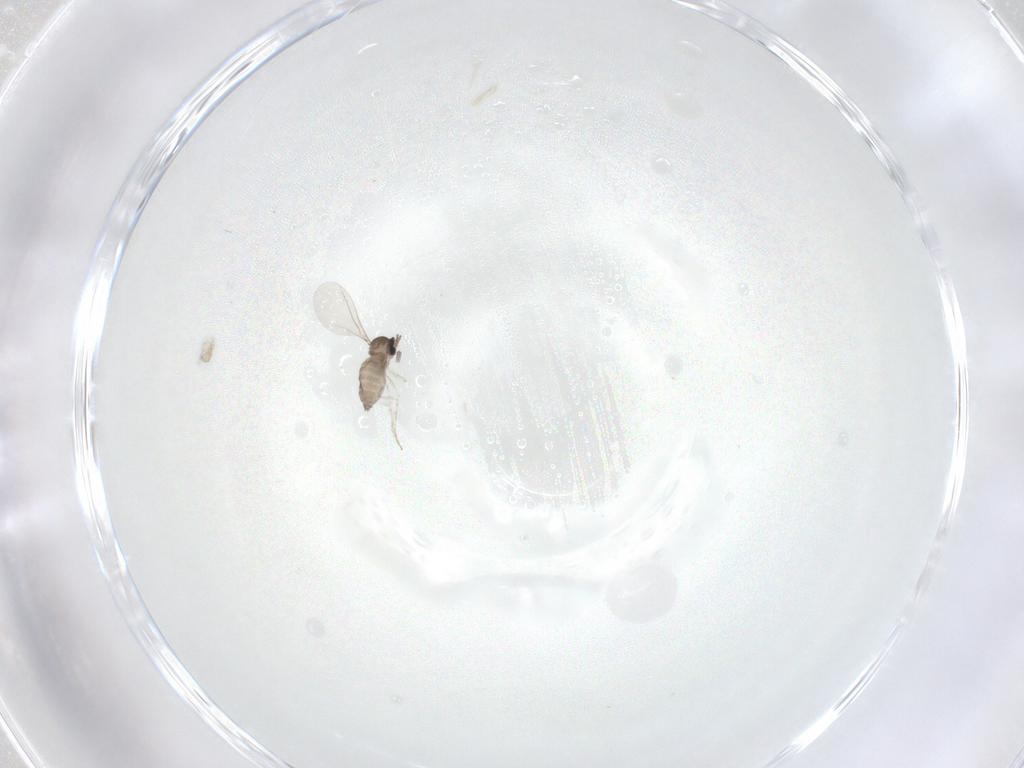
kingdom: Animalia
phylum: Arthropoda
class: Insecta
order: Diptera
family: Cecidomyiidae
